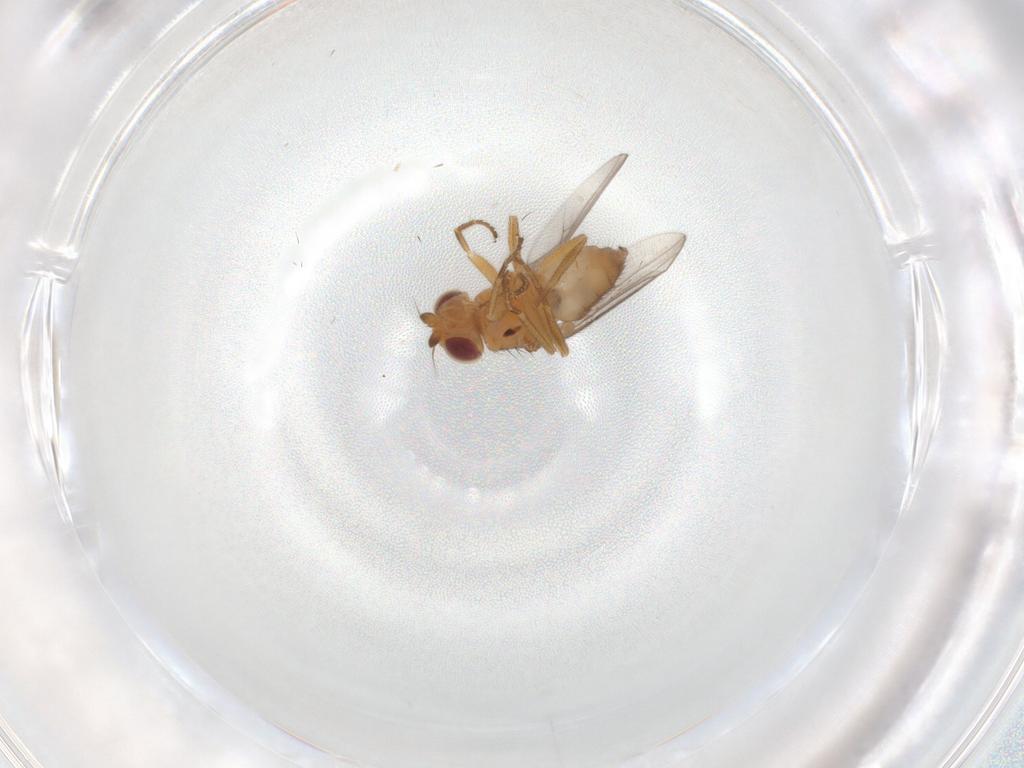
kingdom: Animalia
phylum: Arthropoda
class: Insecta
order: Diptera
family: Chloropidae
